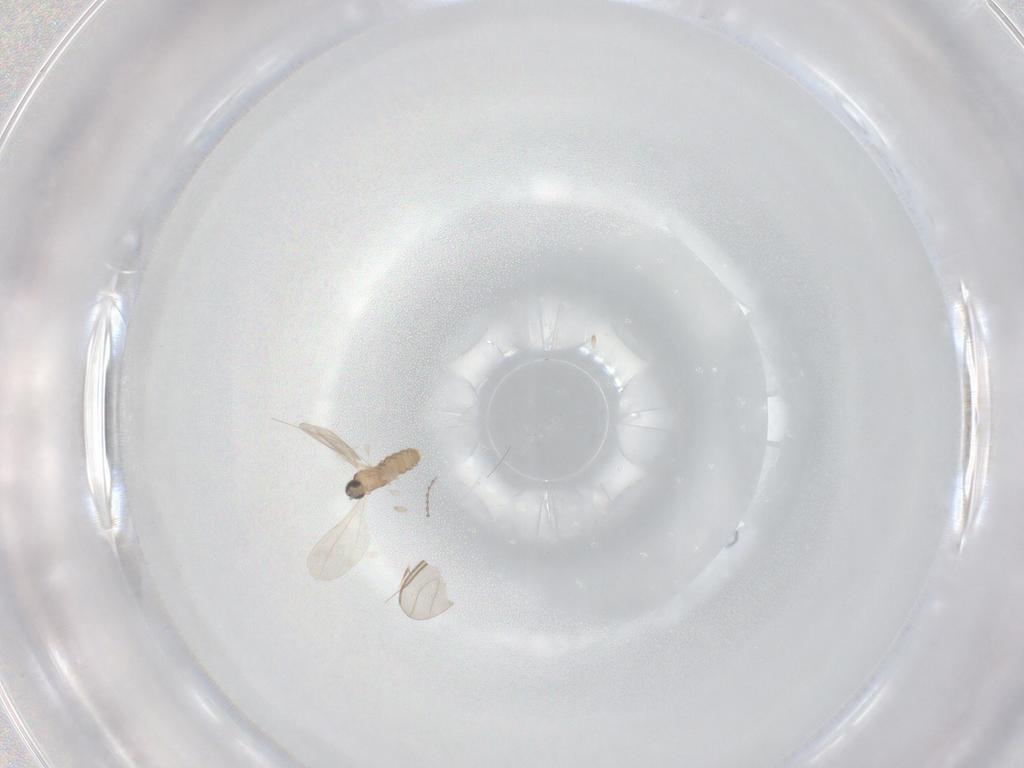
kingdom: Animalia
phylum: Arthropoda
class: Insecta
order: Diptera
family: Cecidomyiidae
